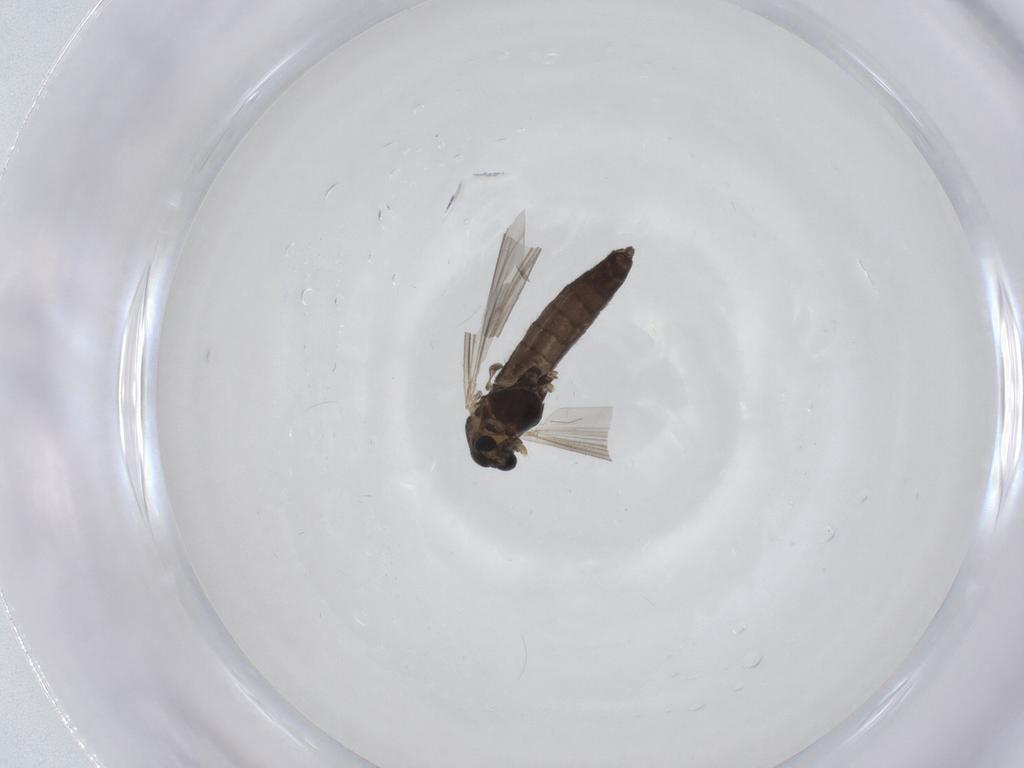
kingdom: Animalia
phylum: Arthropoda
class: Insecta
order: Diptera
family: Chironomidae
